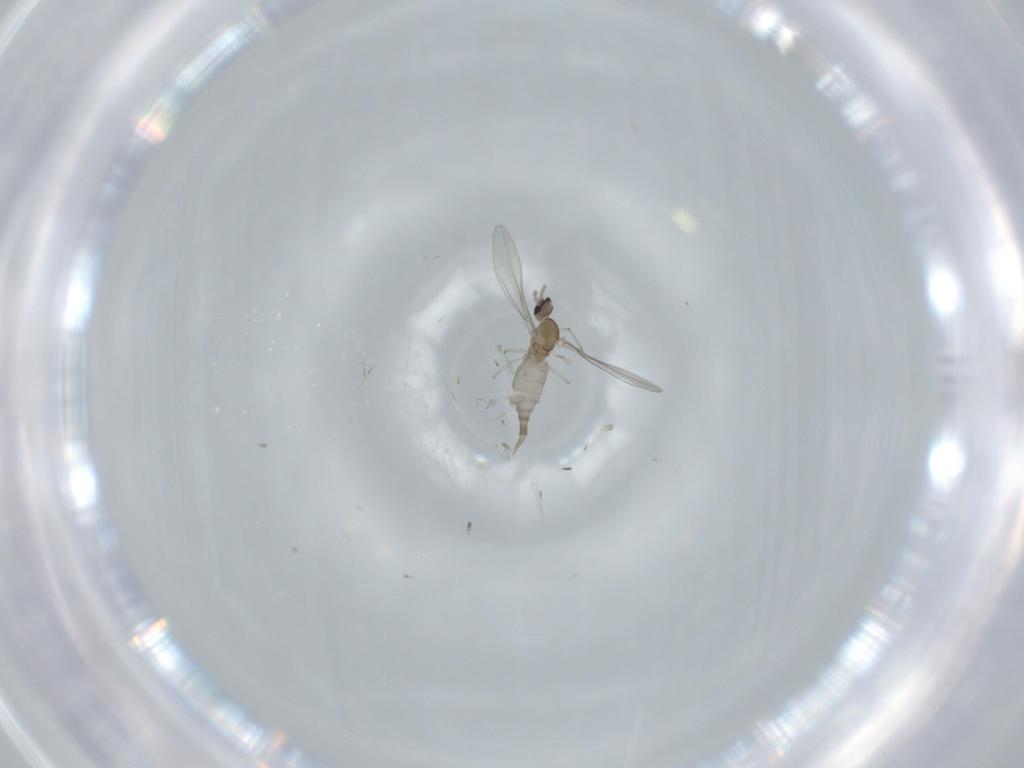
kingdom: Animalia
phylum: Arthropoda
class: Insecta
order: Diptera
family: Cecidomyiidae
